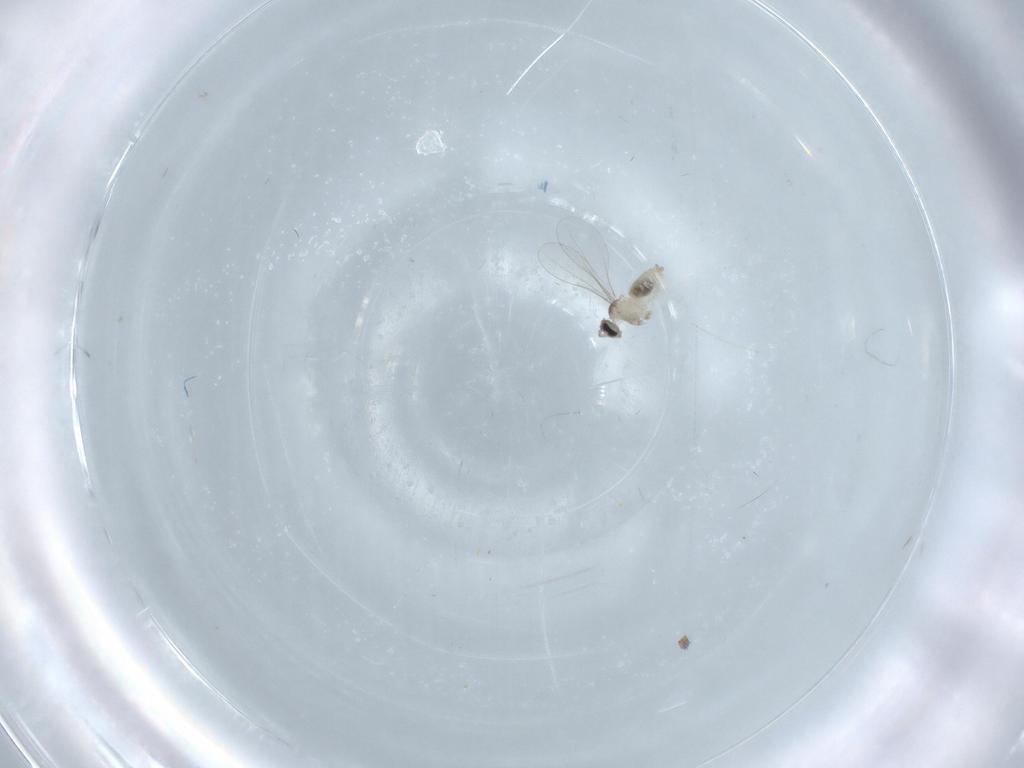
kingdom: Animalia
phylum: Arthropoda
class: Insecta
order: Diptera
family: Cecidomyiidae
